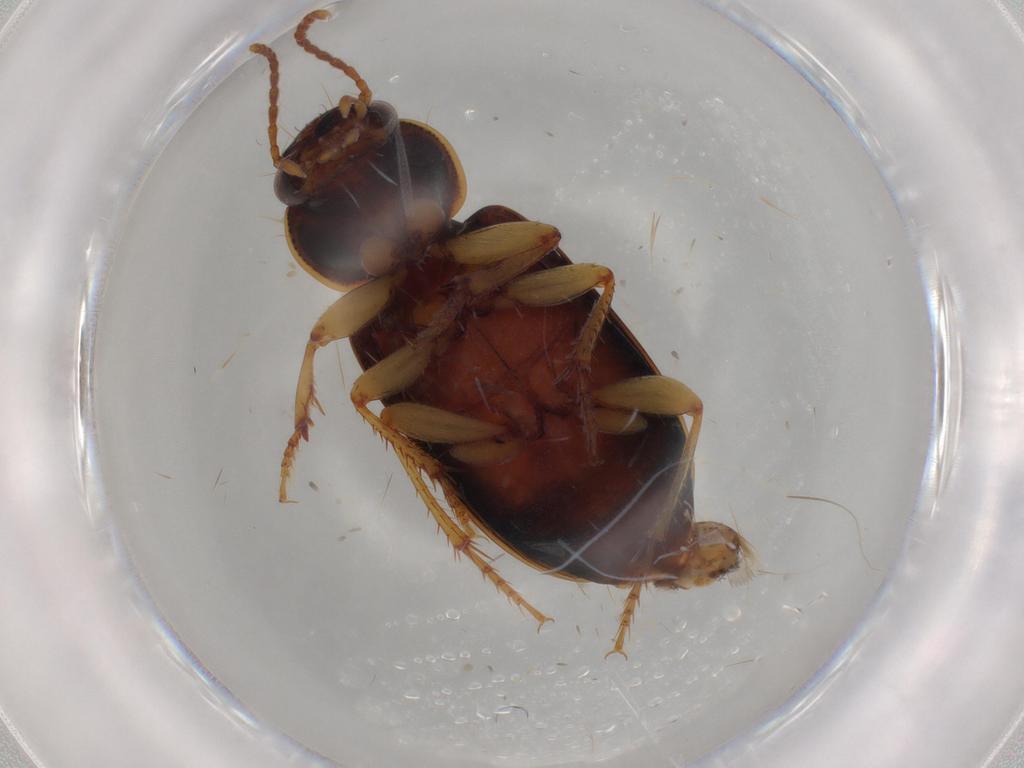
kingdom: Animalia
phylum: Arthropoda
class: Insecta
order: Coleoptera
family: Carabidae
